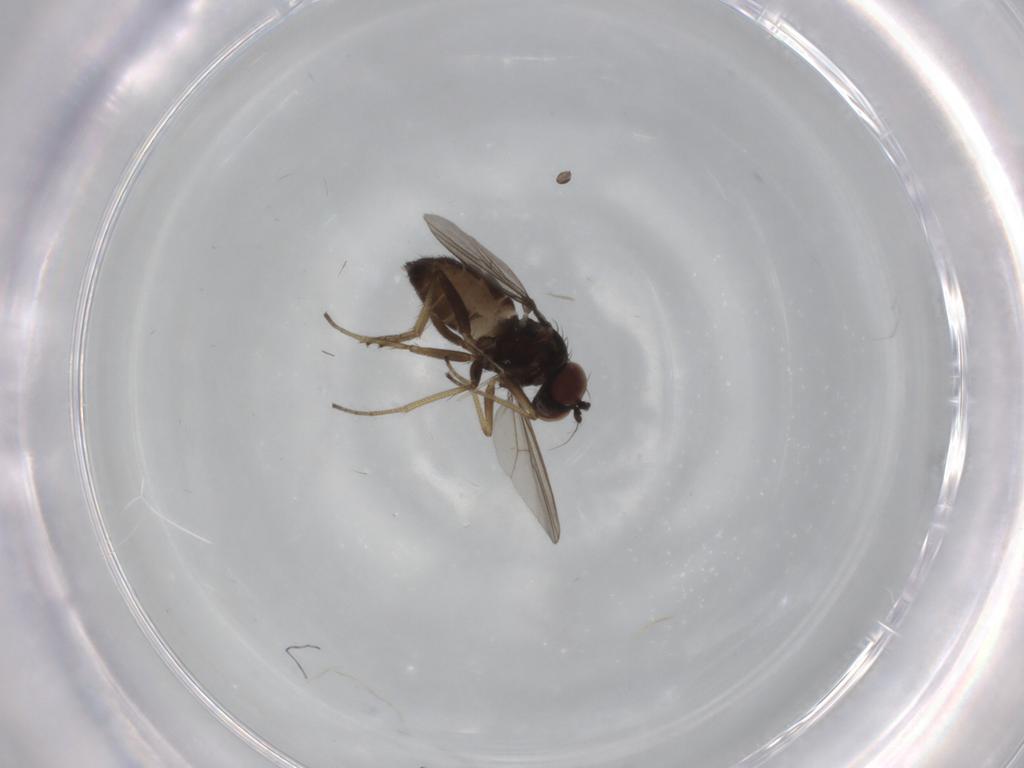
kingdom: Animalia
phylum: Arthropoda
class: Insecta
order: Diptera
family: Dolichopodidae
